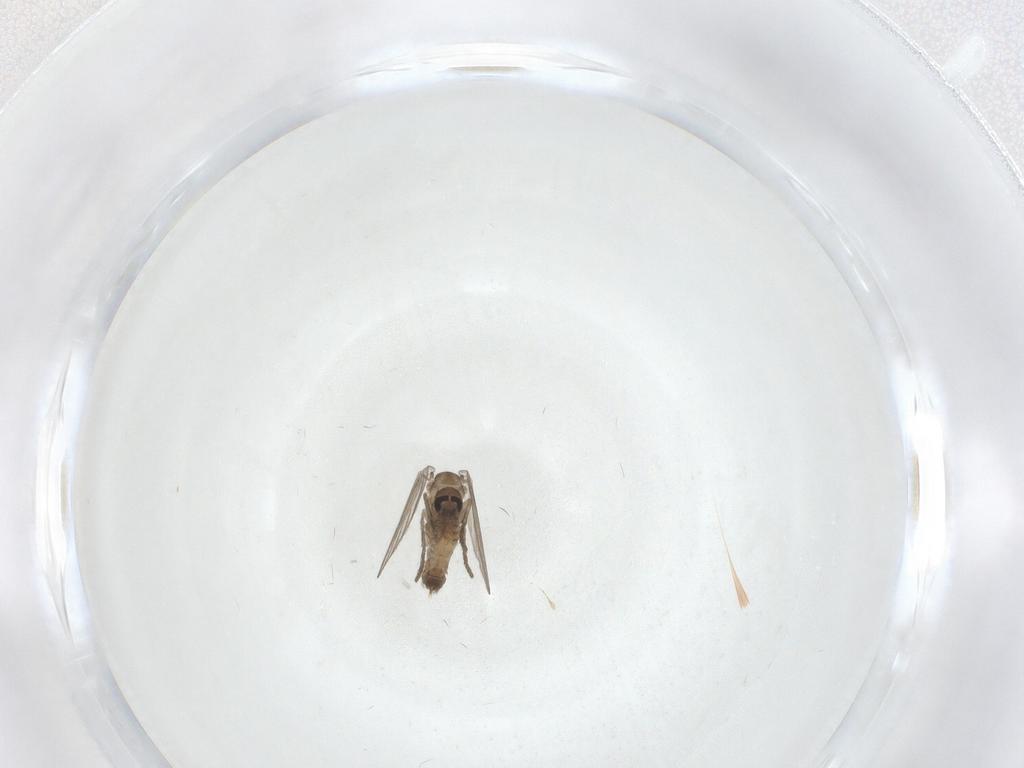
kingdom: Animalia
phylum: Arthropoda
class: Insecta
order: Diptera
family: Psychodidae
